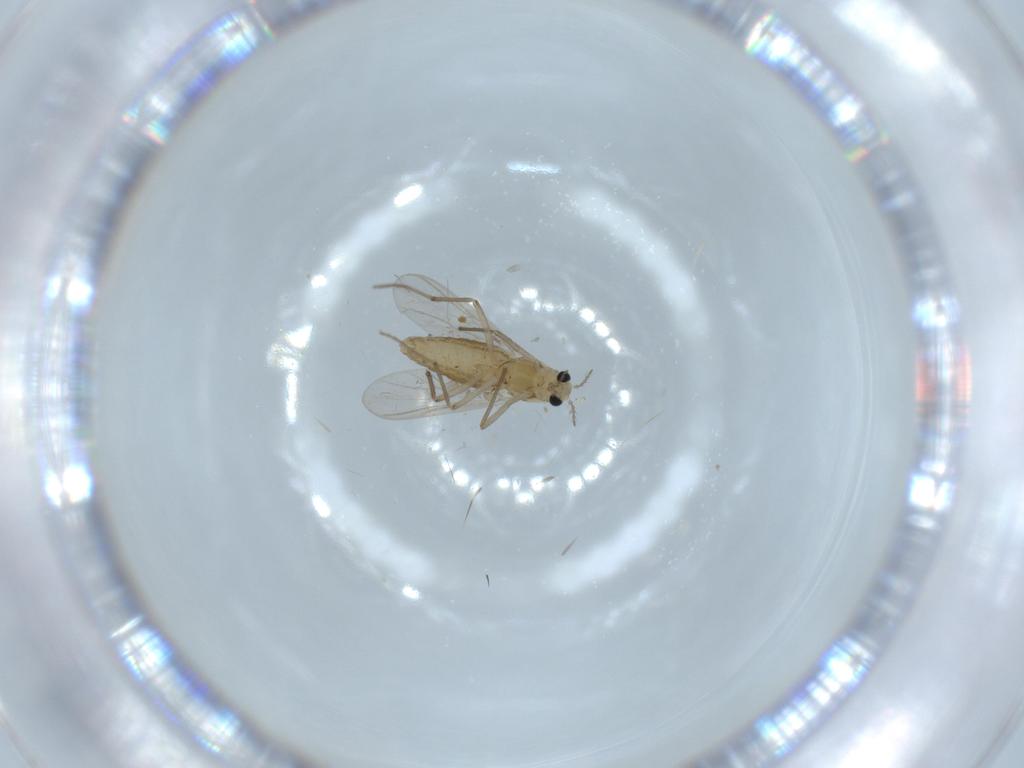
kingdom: Animalia
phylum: Arthropoda
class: Insecta
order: Diptera
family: Chironomidae
